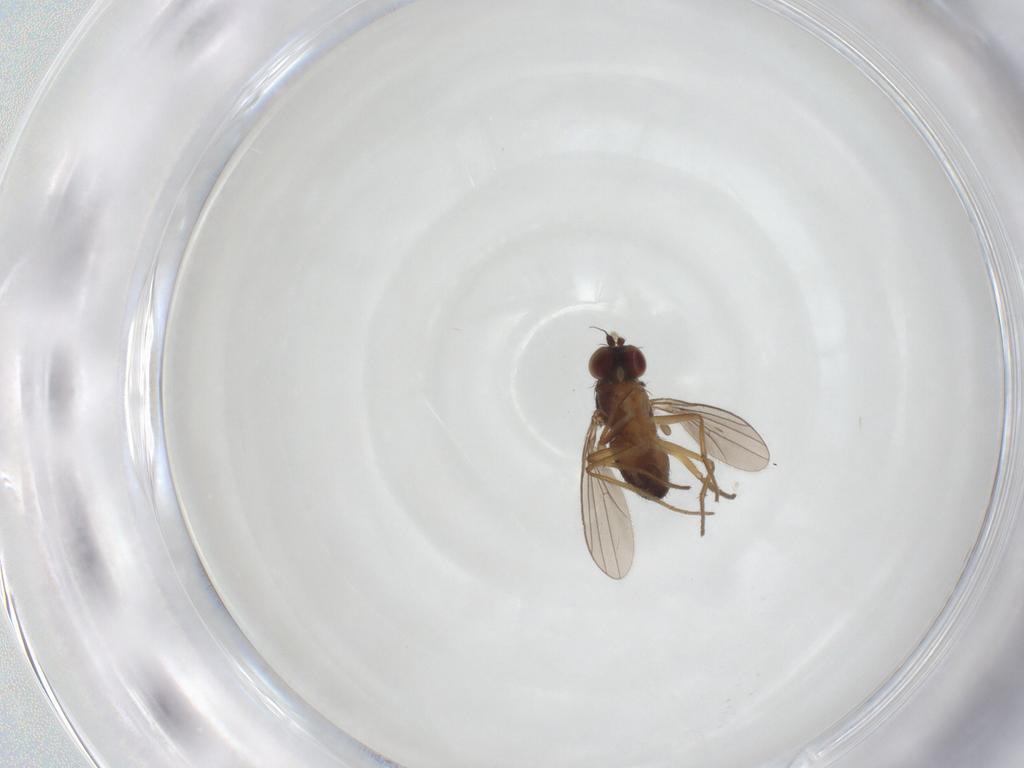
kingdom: Animalia
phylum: Arthropoda
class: Insecta
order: Diptera
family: Dolichopodidae
